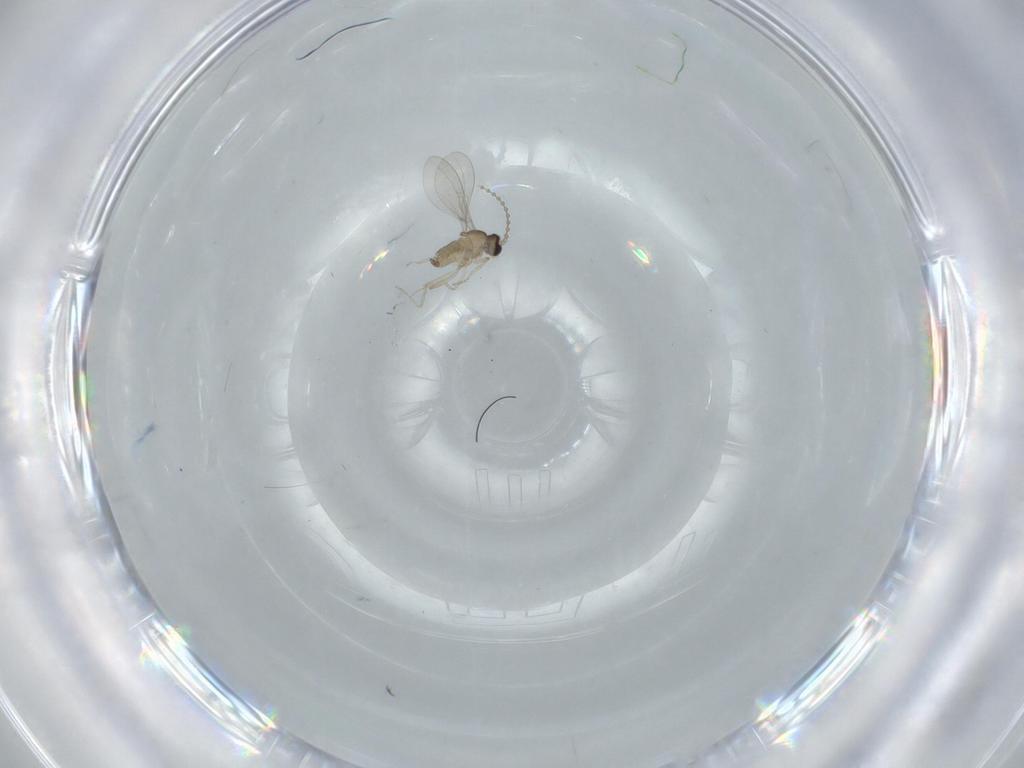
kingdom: Animalia
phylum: Arthropoda
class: Insecta
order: Diptera
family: Cecidomyiidae
